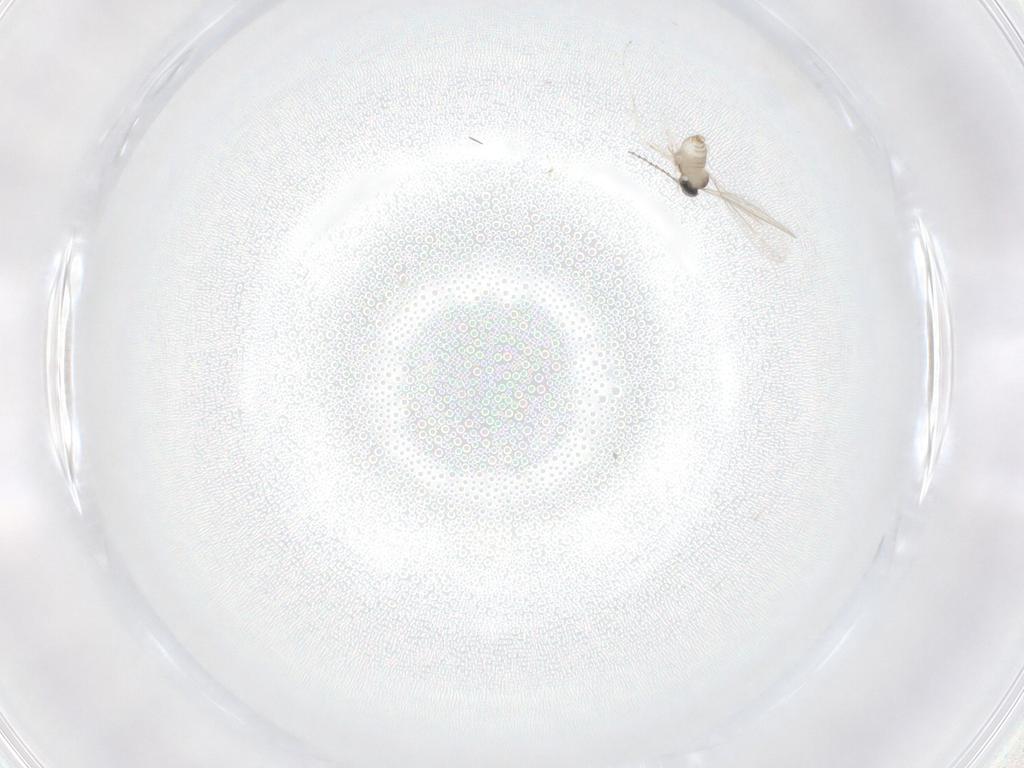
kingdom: Animalia
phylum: Arthropoda
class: Insecta
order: Diptera
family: Cecidomyiidae
